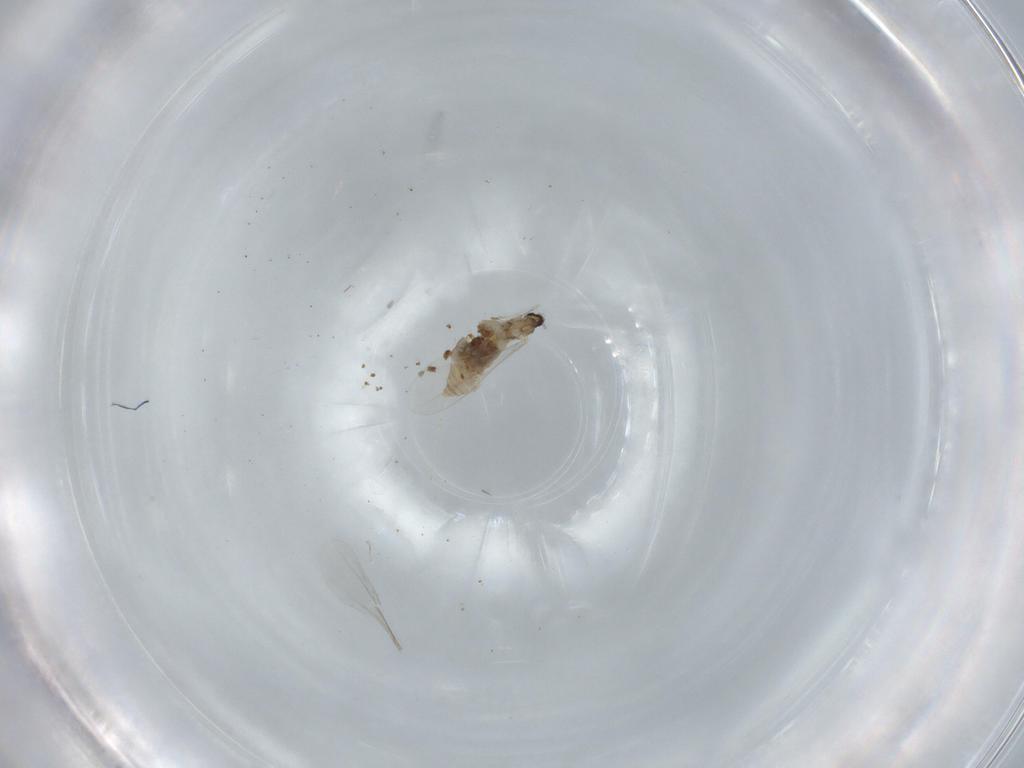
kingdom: Animalia
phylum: Arthropoda
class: Insecta
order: Diptera
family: Cecidomyiidae
